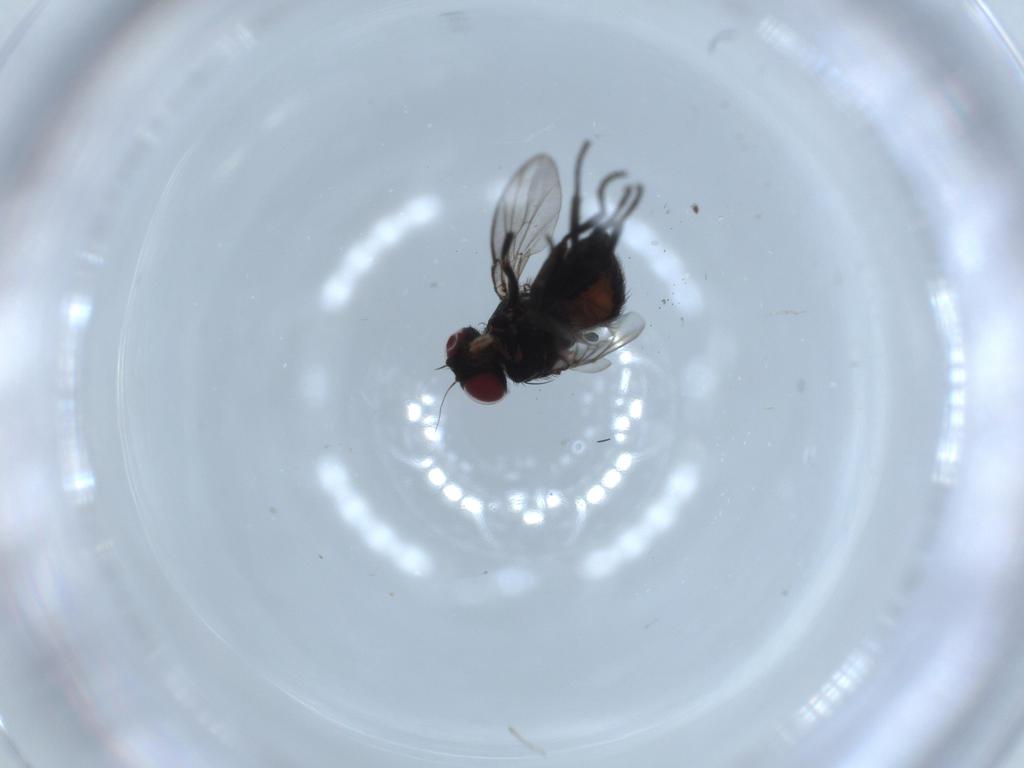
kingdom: Animalia
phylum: Arthropoda
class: Insecta
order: Diptera
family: Agromyzidae
